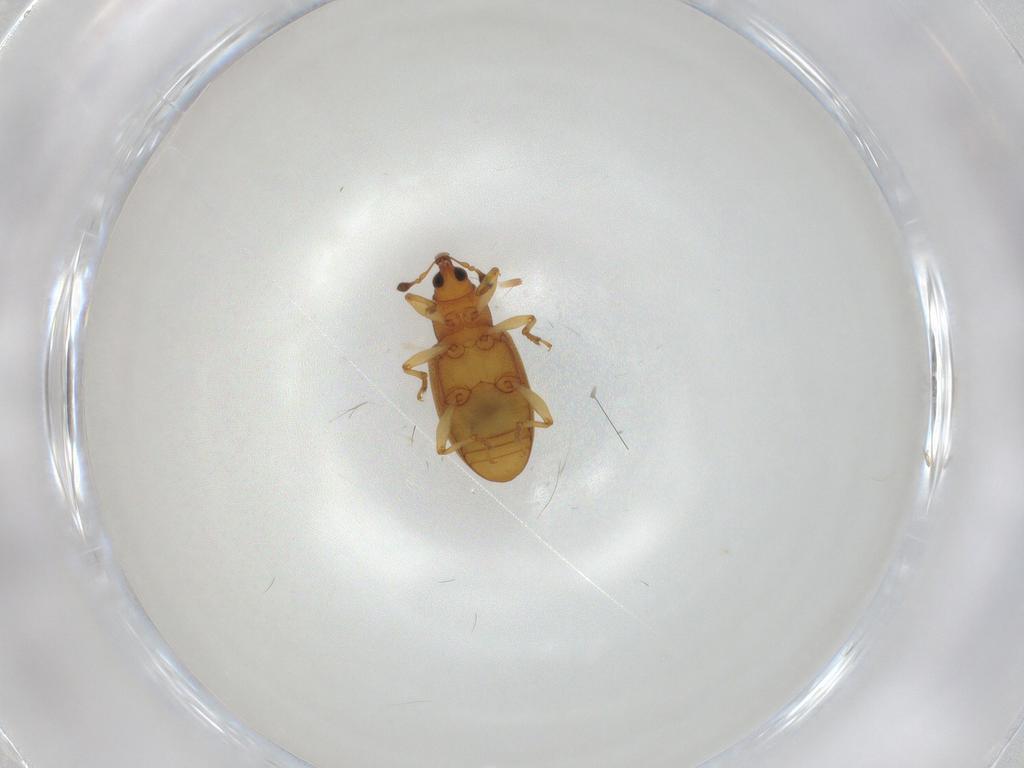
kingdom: Animalia
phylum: Arthropoda
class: Insecta
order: Coleoptera
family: Curculionidae
